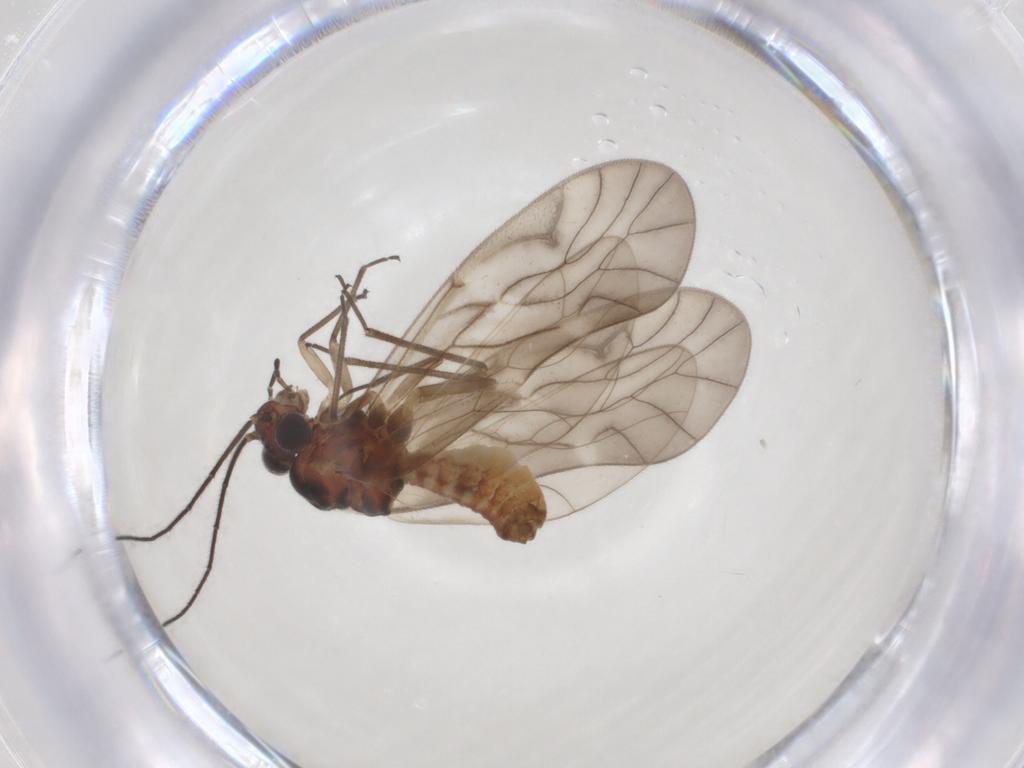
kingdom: Animalia
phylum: Arthropoda
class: Insecta
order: Psocodea
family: Caeciliusidae
